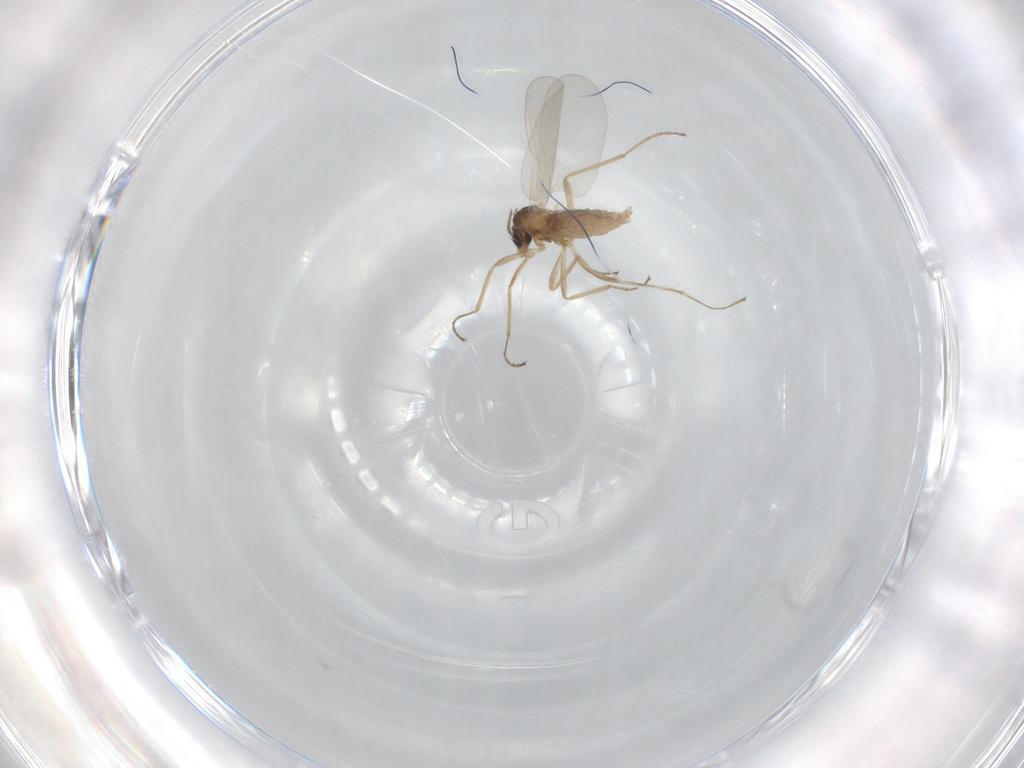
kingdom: Animalia
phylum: Arthropoda
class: Insecta
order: Diptera
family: Cecidomyiidae
